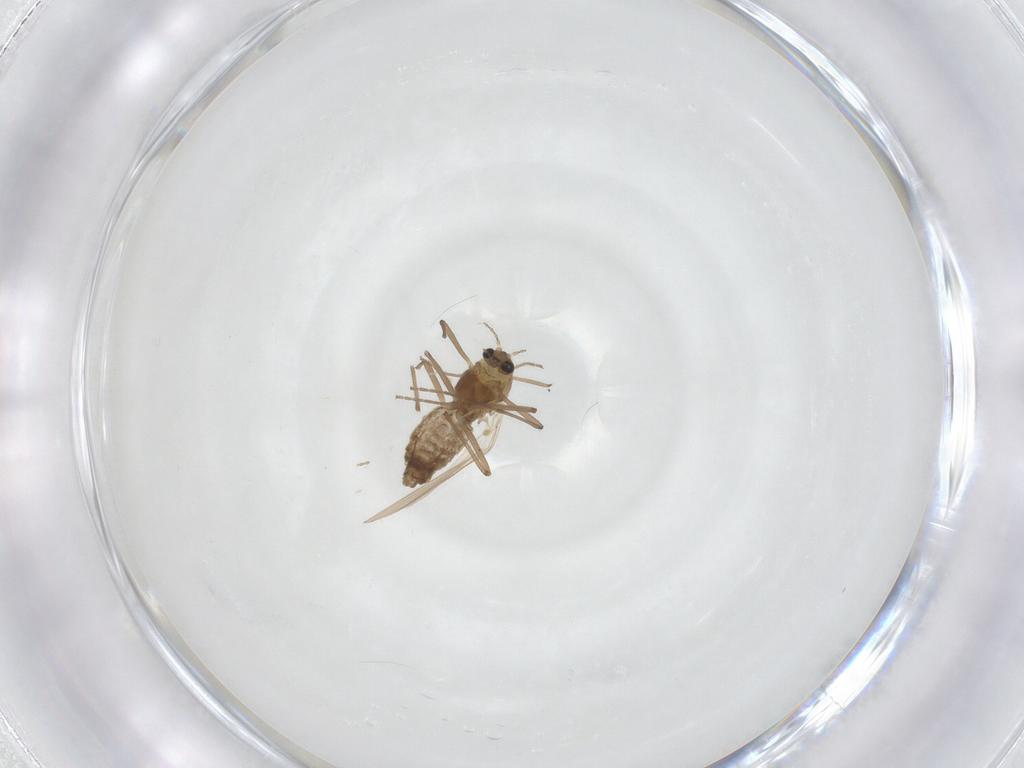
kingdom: Animalia
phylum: Arthropoda
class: Insecta
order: Diptera
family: Chironomidae
